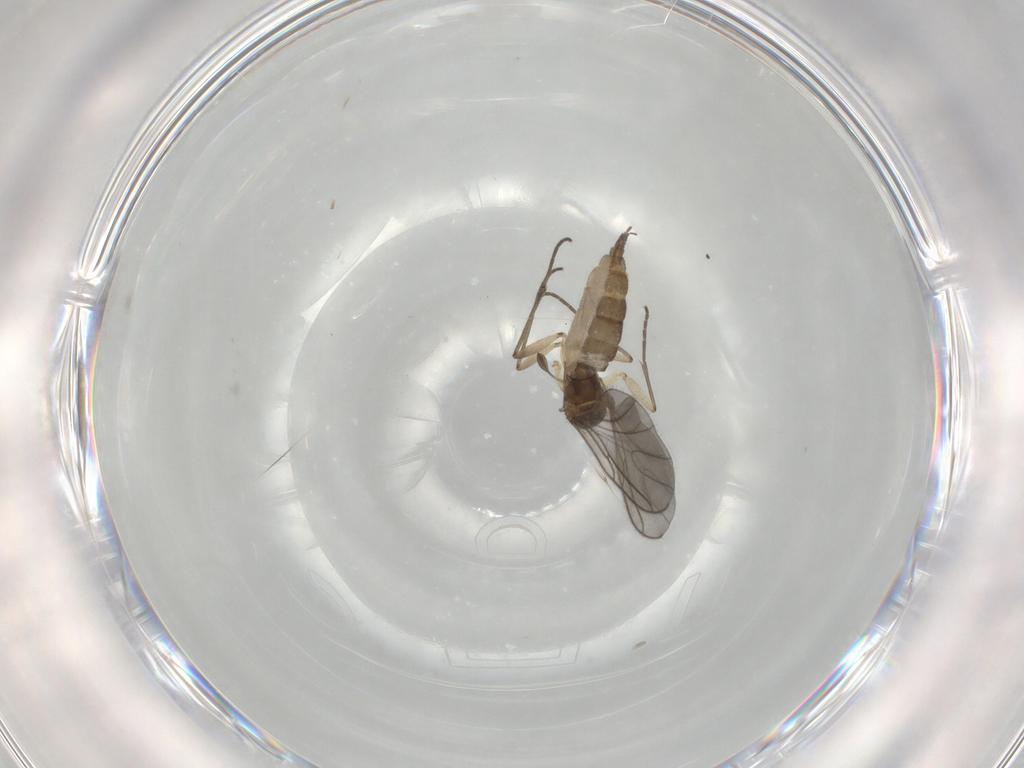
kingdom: Animalia
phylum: Arthropoda
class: Insecta
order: Diptera
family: Sciaridae
